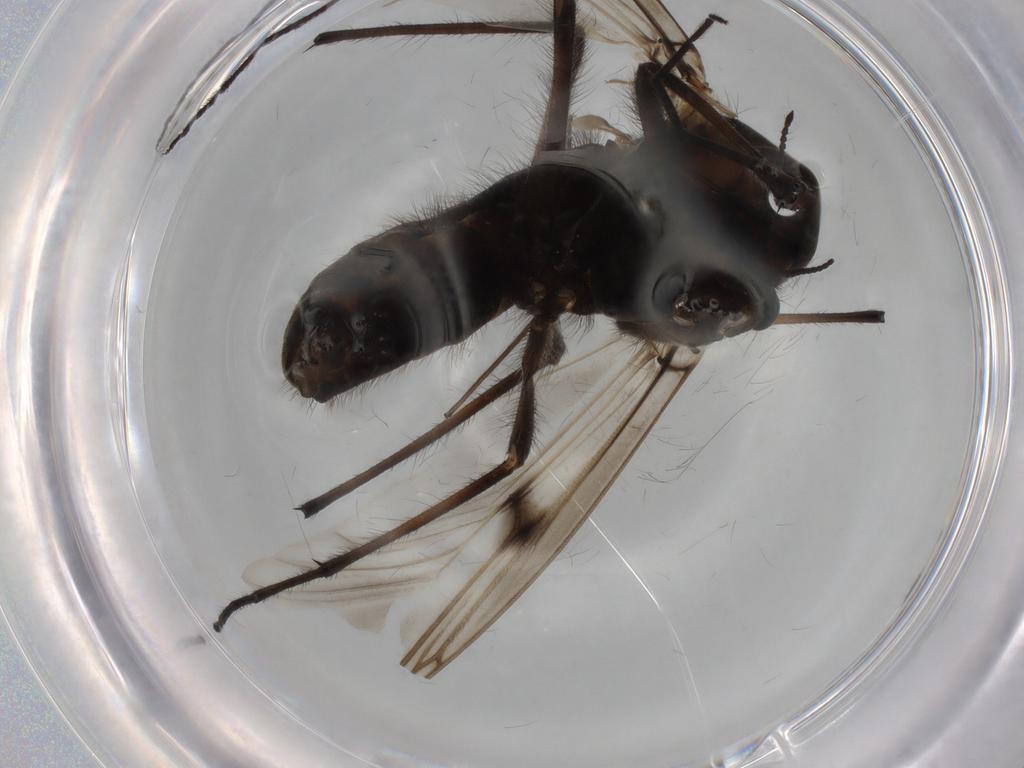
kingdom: Animalia
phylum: Arthropoda
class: Insecta
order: Diptera
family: Chironomidae
